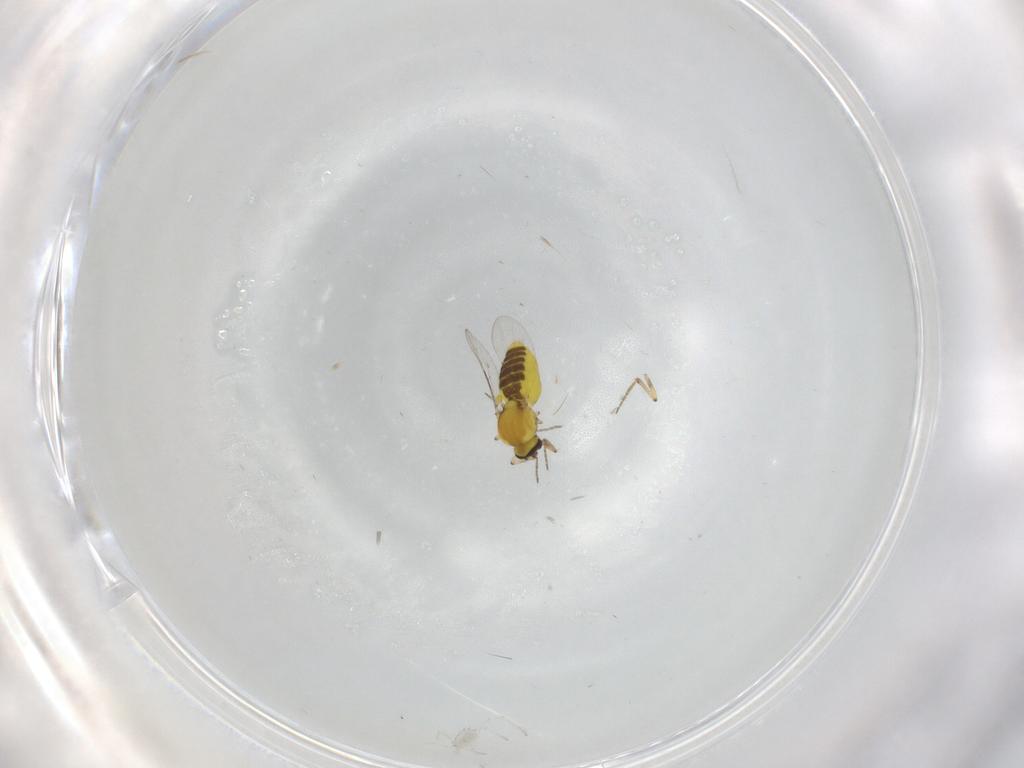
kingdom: Animalia
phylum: Arthropoda
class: Insecta
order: Diptera
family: Ceratopogonidae
